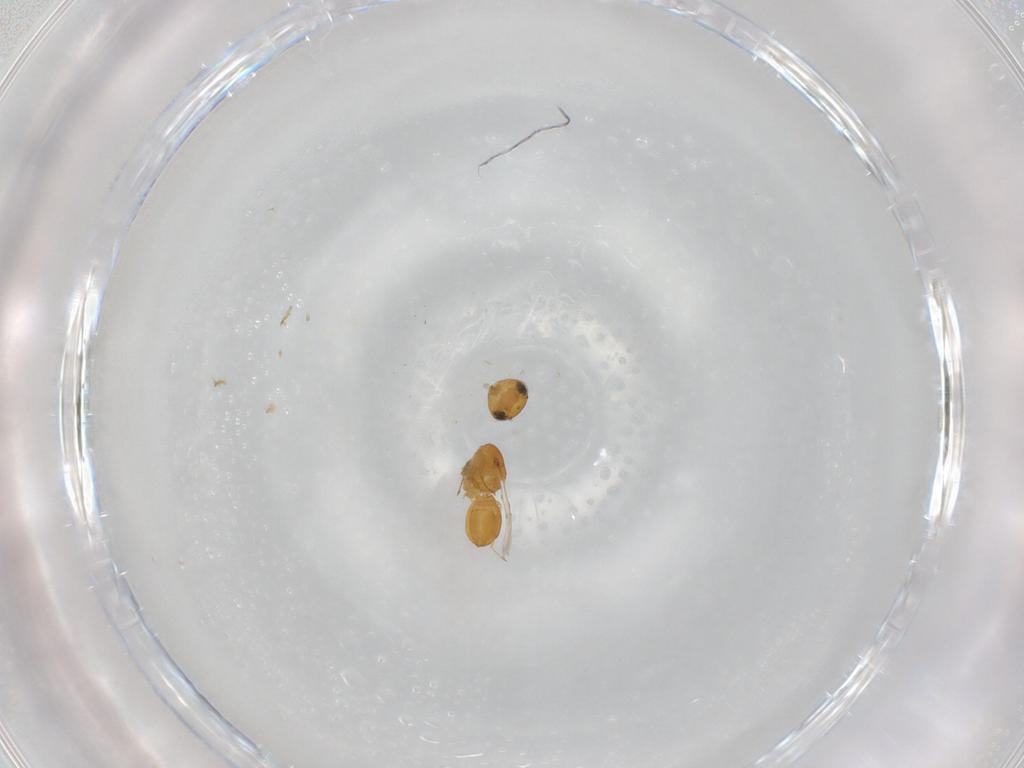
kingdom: Animalia
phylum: Arthropoda
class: Insecta
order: Hymenoptera
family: Scelionidae
